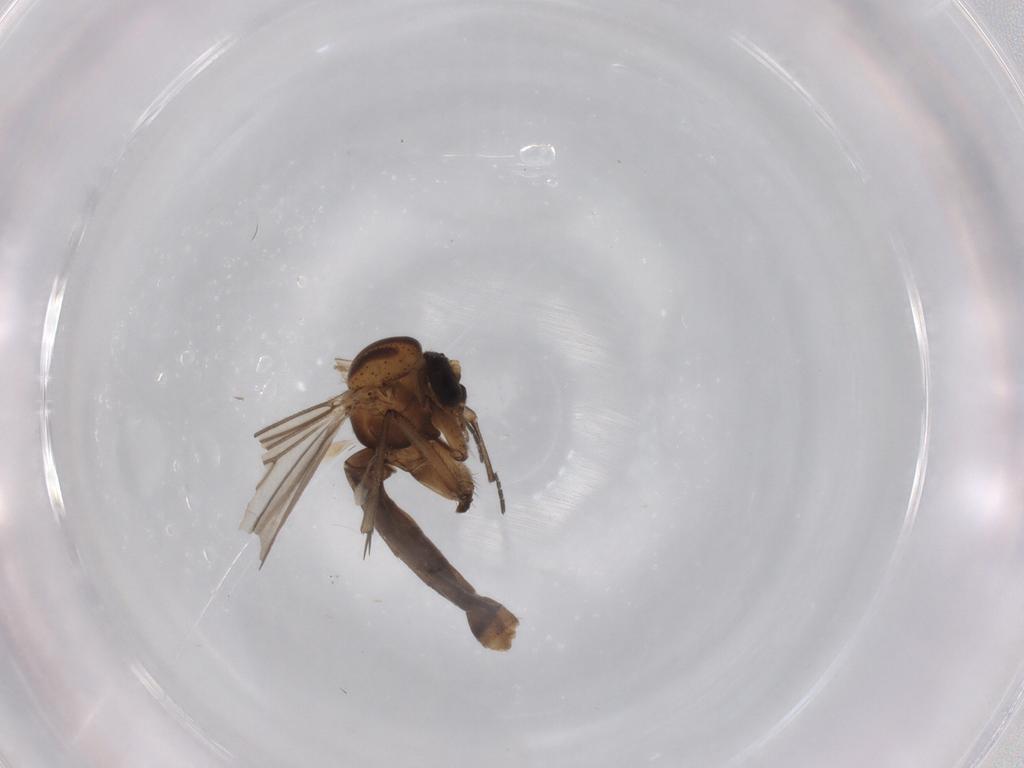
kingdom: Animalia
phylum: Arthropoda
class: Insecta
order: Diptera
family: Mycetophilidae
